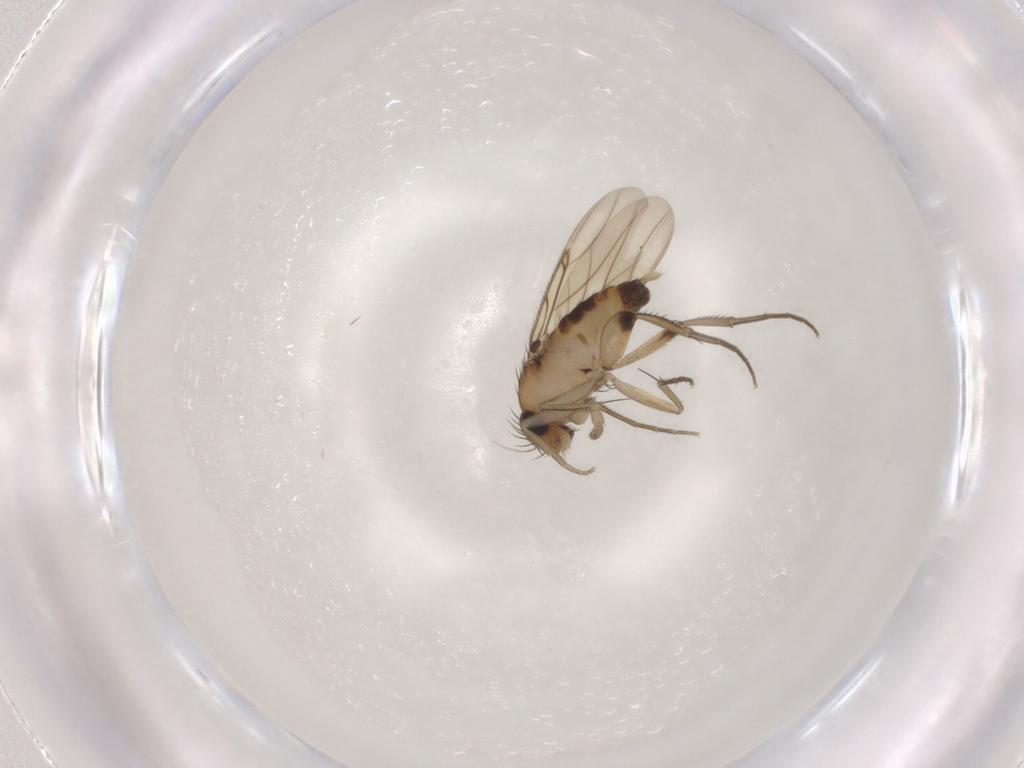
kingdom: Animalia
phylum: Arthropoda
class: Insecta
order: Diptera
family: Phoridae
